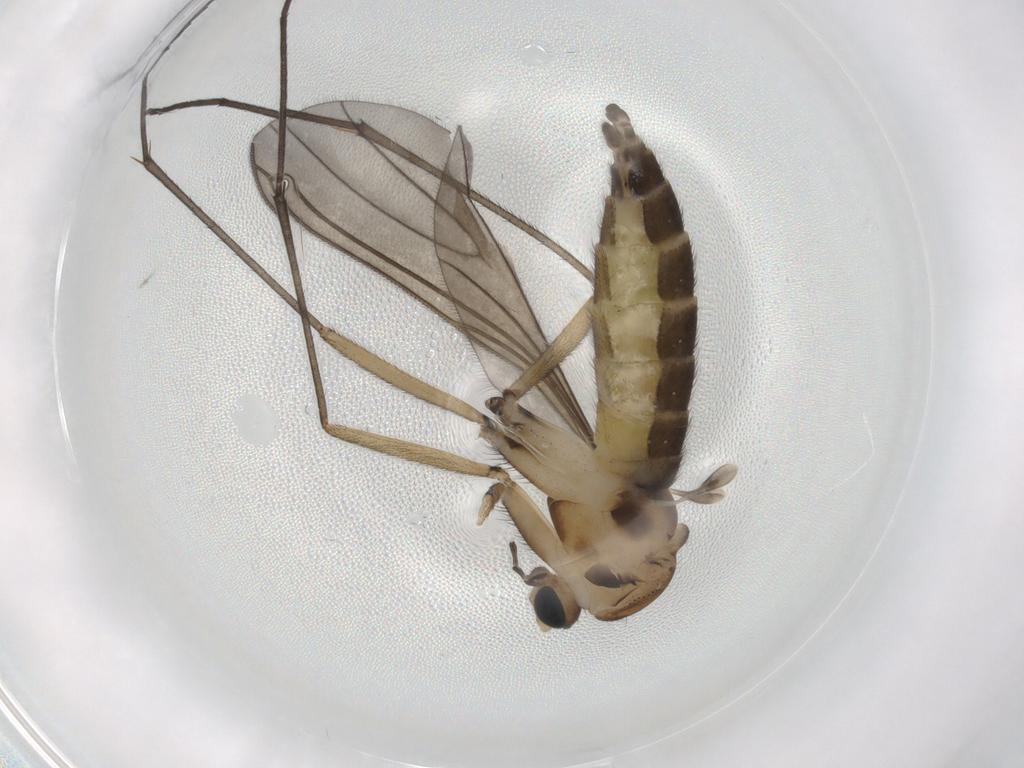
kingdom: Animalia
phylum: Arthropoda
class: Insecta
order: Diptera
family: Sciaridae
